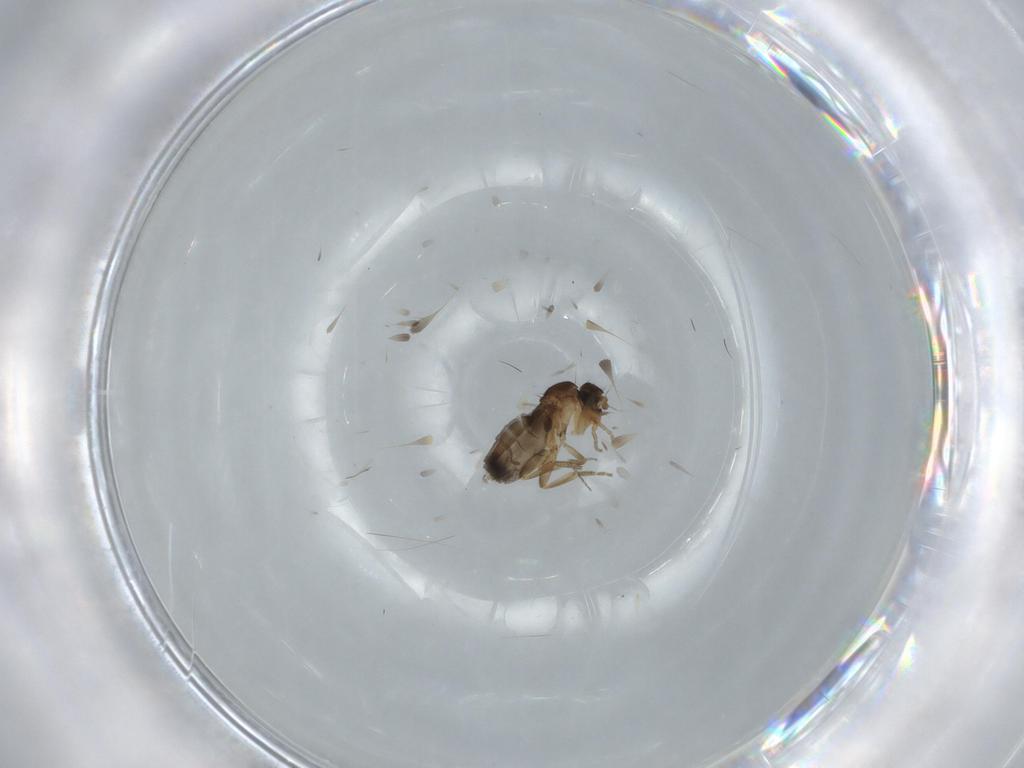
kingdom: Animalia
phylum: Arthropoda
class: Insecta
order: Diptera
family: Phoridae
